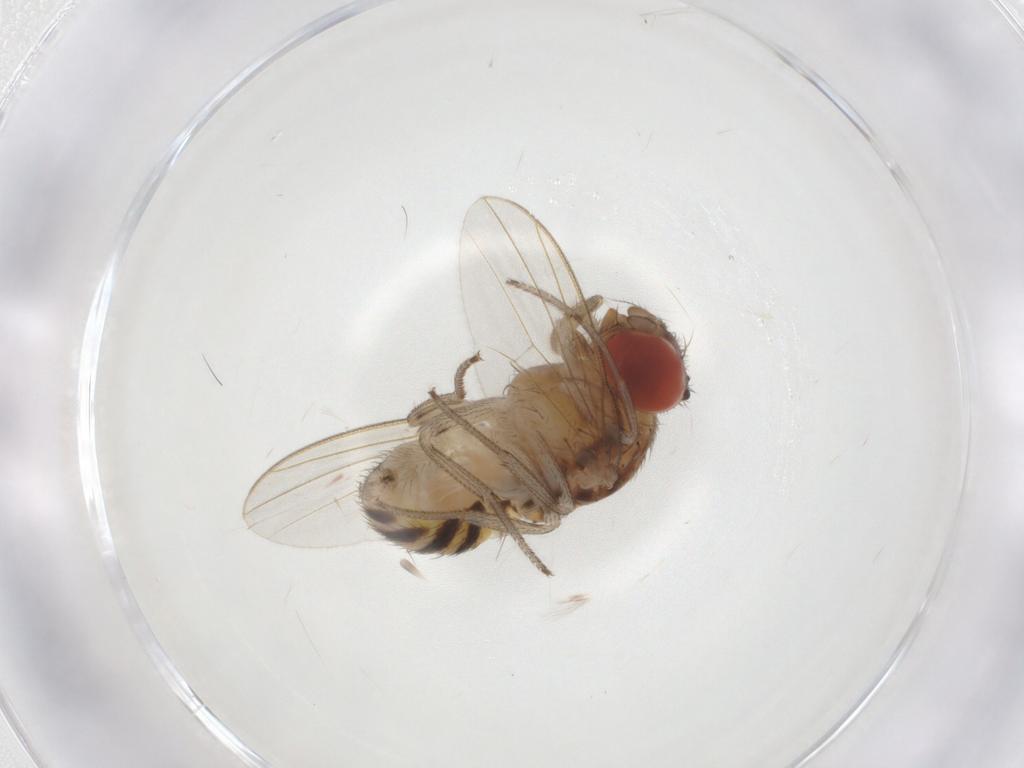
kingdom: Animalia
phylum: Arthropoda
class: Insecta
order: Diptera
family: Drosophilidae
